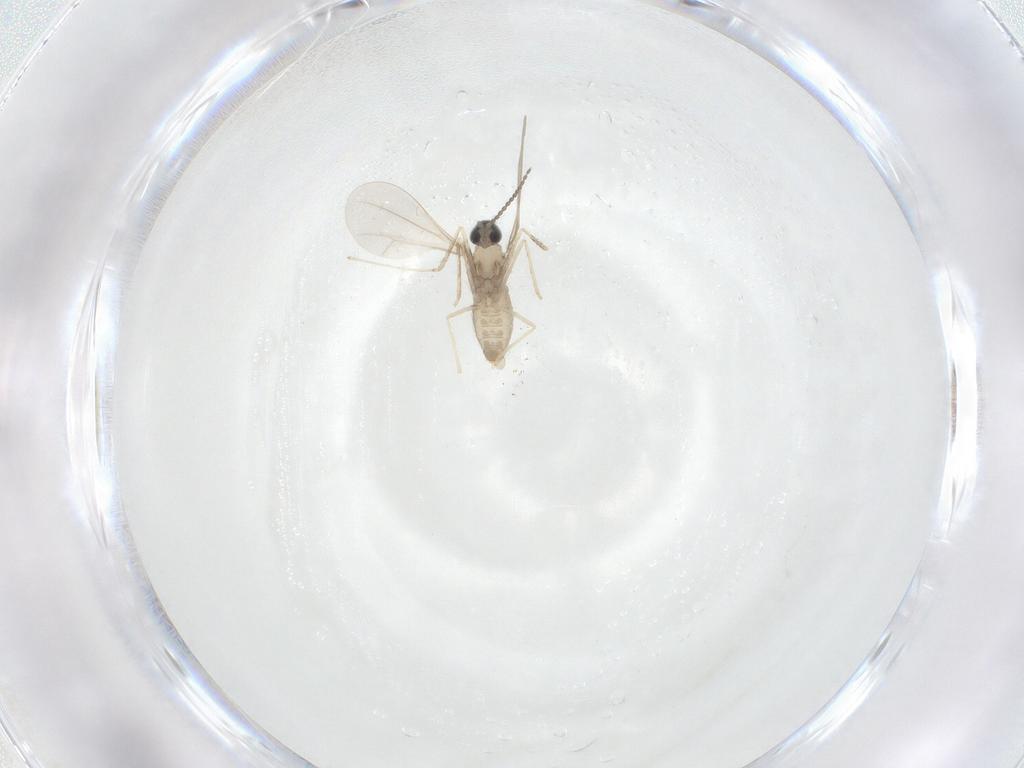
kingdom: Animalia
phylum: Arthropoda
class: Insecta
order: Diptera
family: Cecidomyiidae
